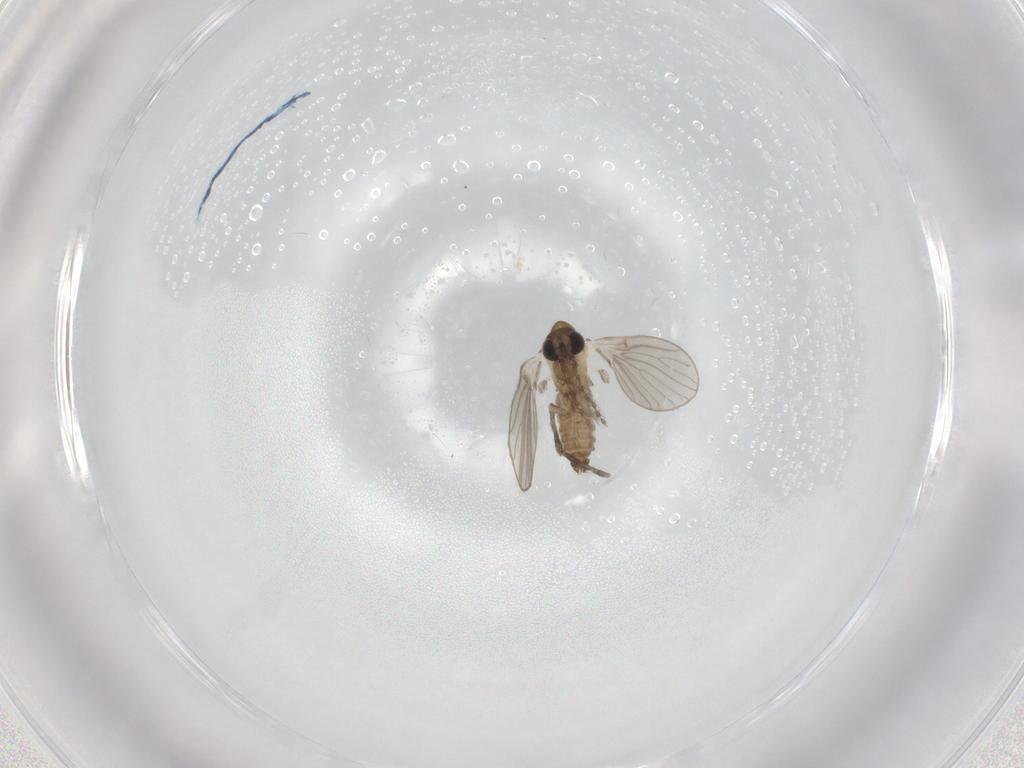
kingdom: Animalia
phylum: Arthropoda
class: Insecta
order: Diptera
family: Psychodidae
